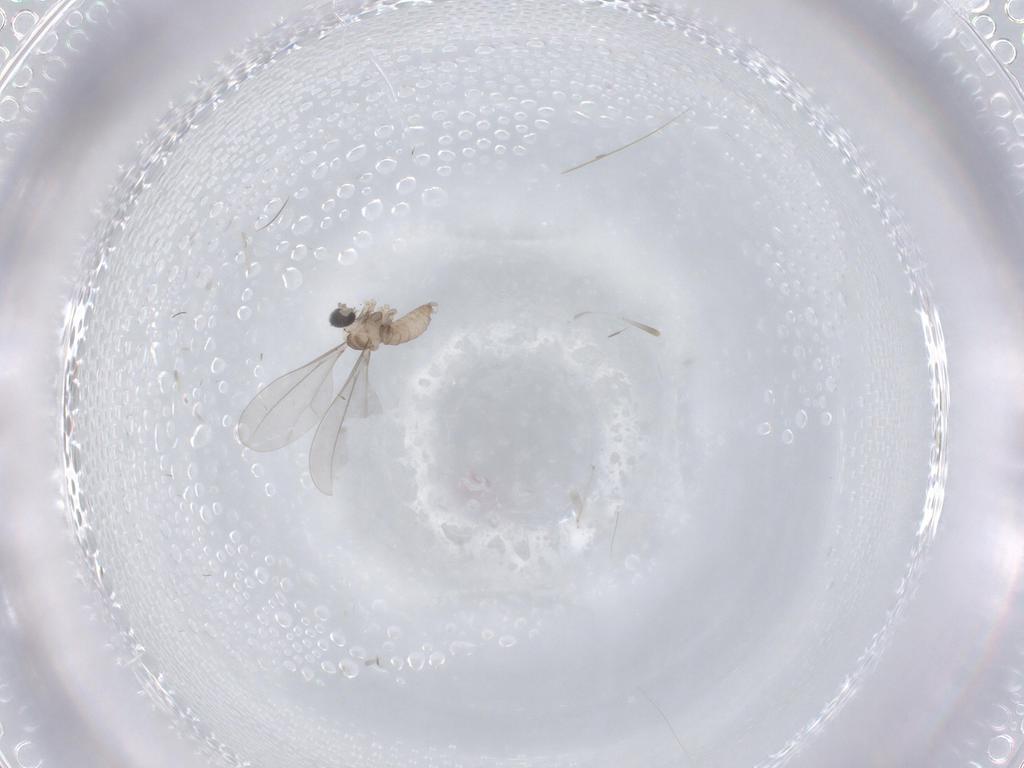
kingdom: Animalia
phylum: Arthropoda
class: Insecta
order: Diptera
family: Cecidomyiidae
